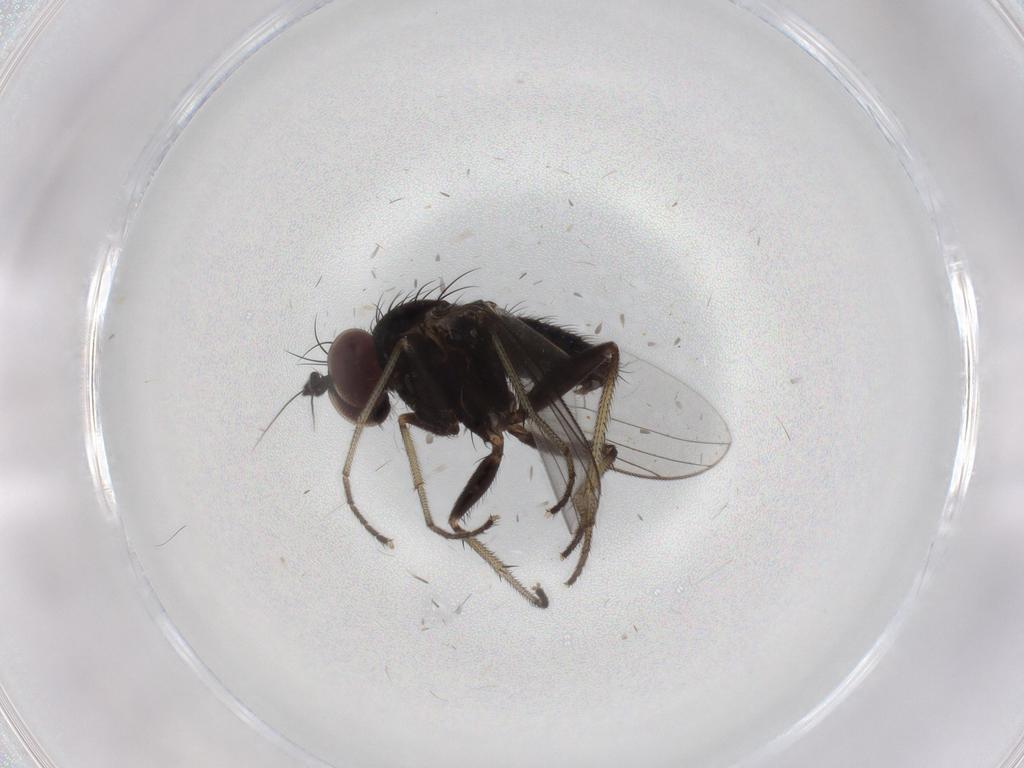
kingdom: Animalia
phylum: Arthropoda
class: Insecta
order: Diptera
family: Dolichopodidae
